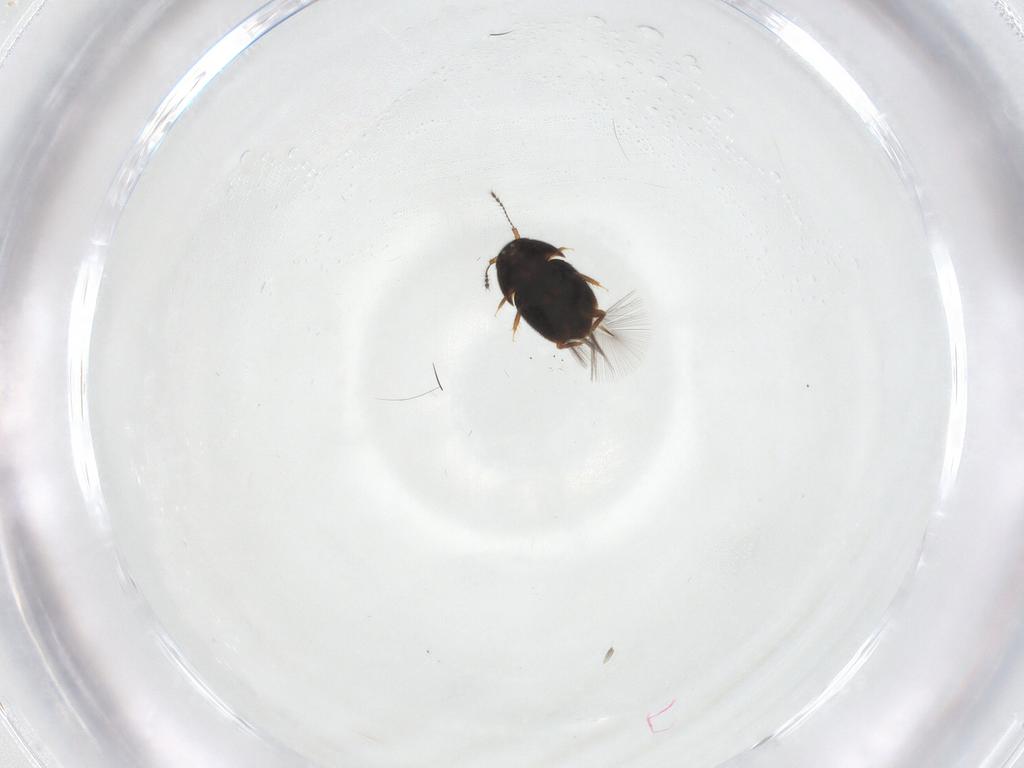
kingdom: Animalia
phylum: Arthropoda
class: Insecta
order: Coleoptera
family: Ptiliidae
